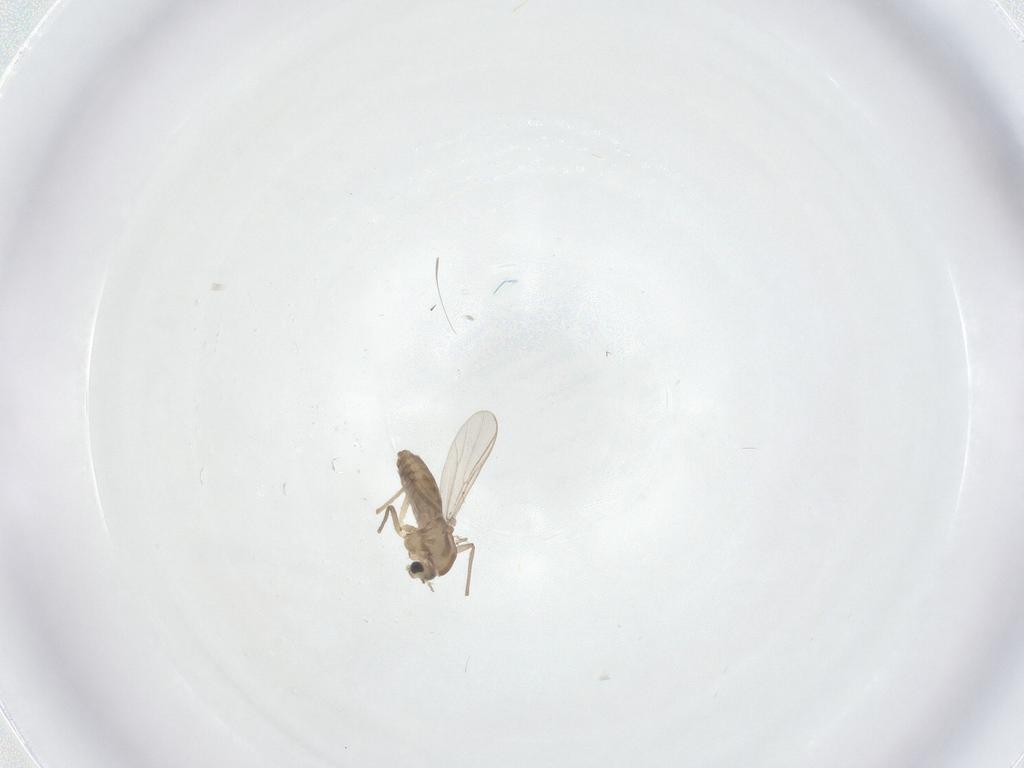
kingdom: Animalia
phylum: Arthropoda
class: Insecta
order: Diptera
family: Chironomidae
